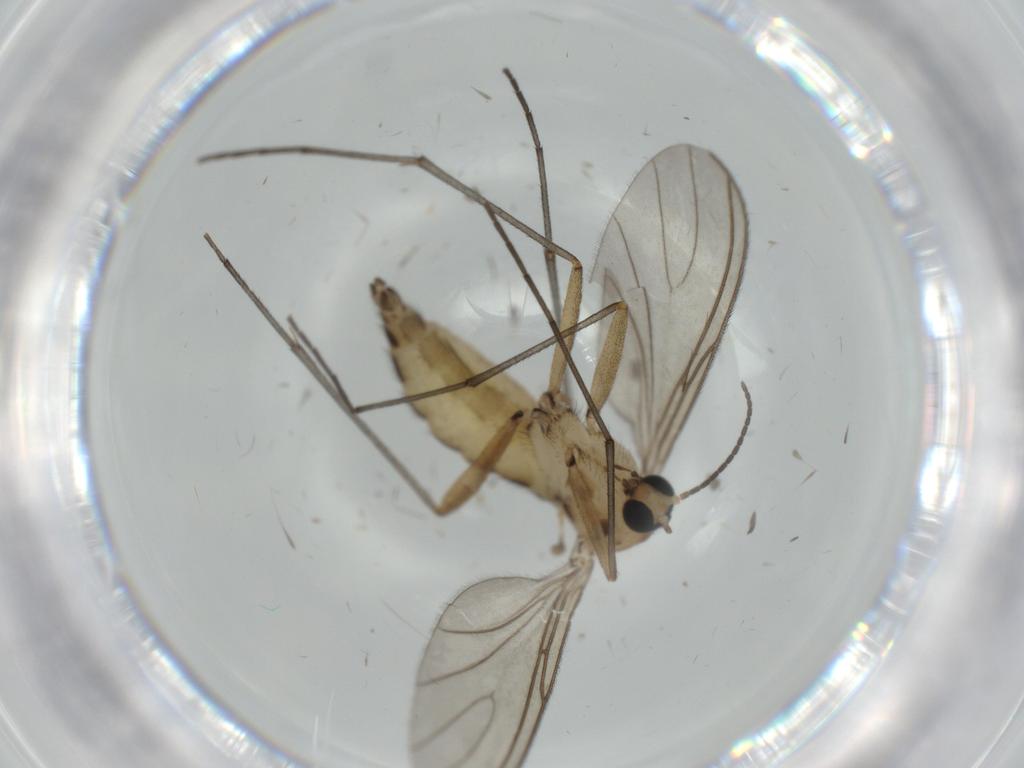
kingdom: Animalia
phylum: Arthropoda
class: Insecta
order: Diptera
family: Sciaridae
